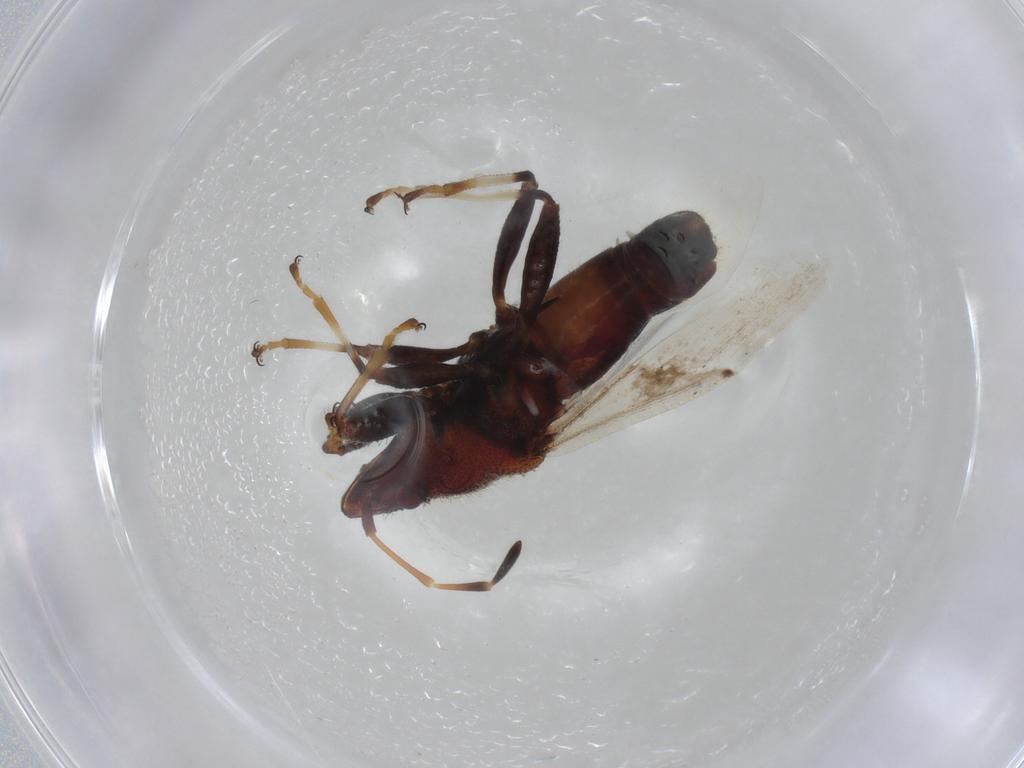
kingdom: Animalia
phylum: Arthropoda
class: Insecta
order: Hemiptera
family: Oxycarenidae
